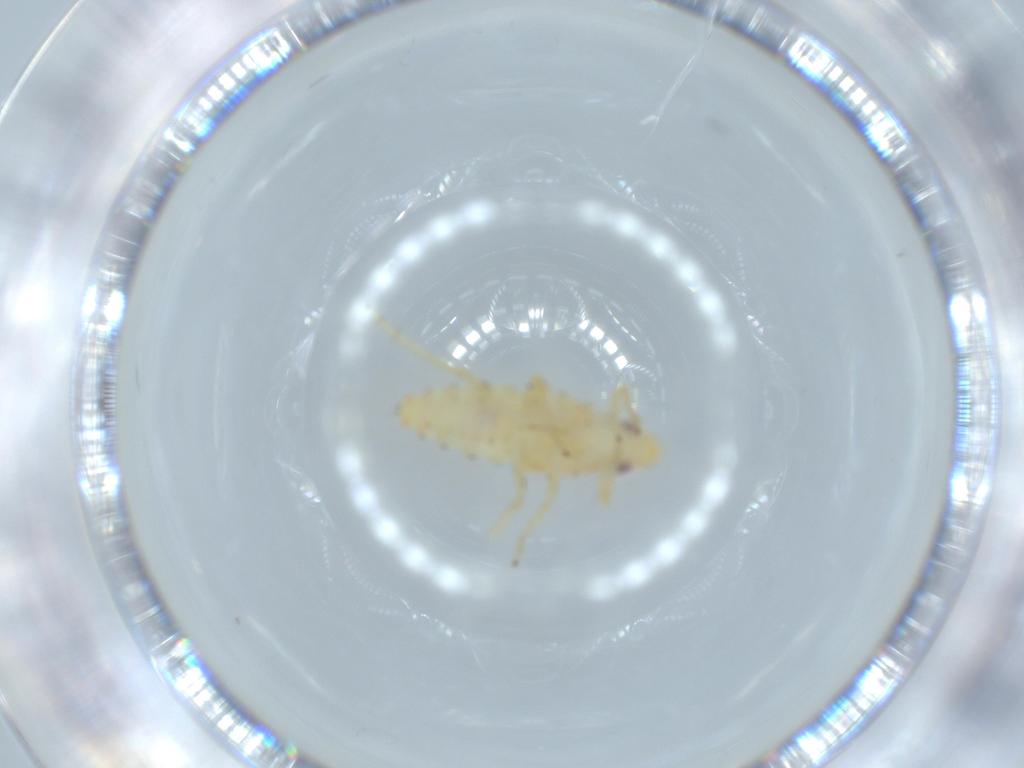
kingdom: Animalia
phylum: Arthropoda
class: Insecta
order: Hemiptera
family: Tropiduchidae
